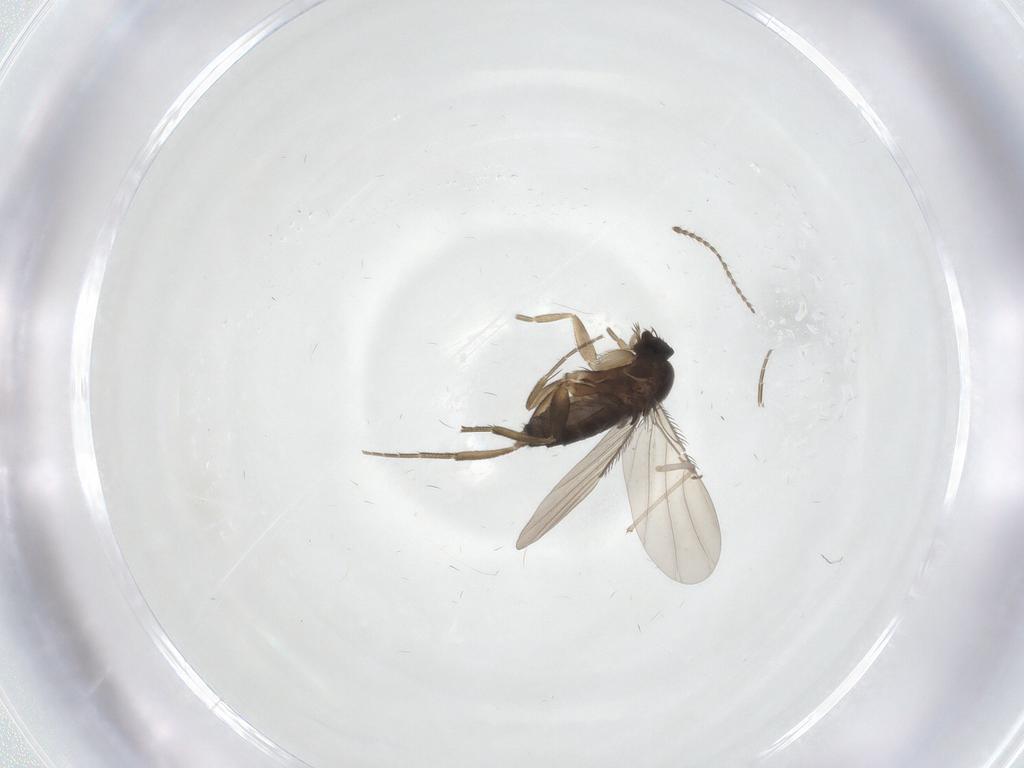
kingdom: Animalia
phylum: Arthropoda
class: Insecta
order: Diptera
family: Phoridae
